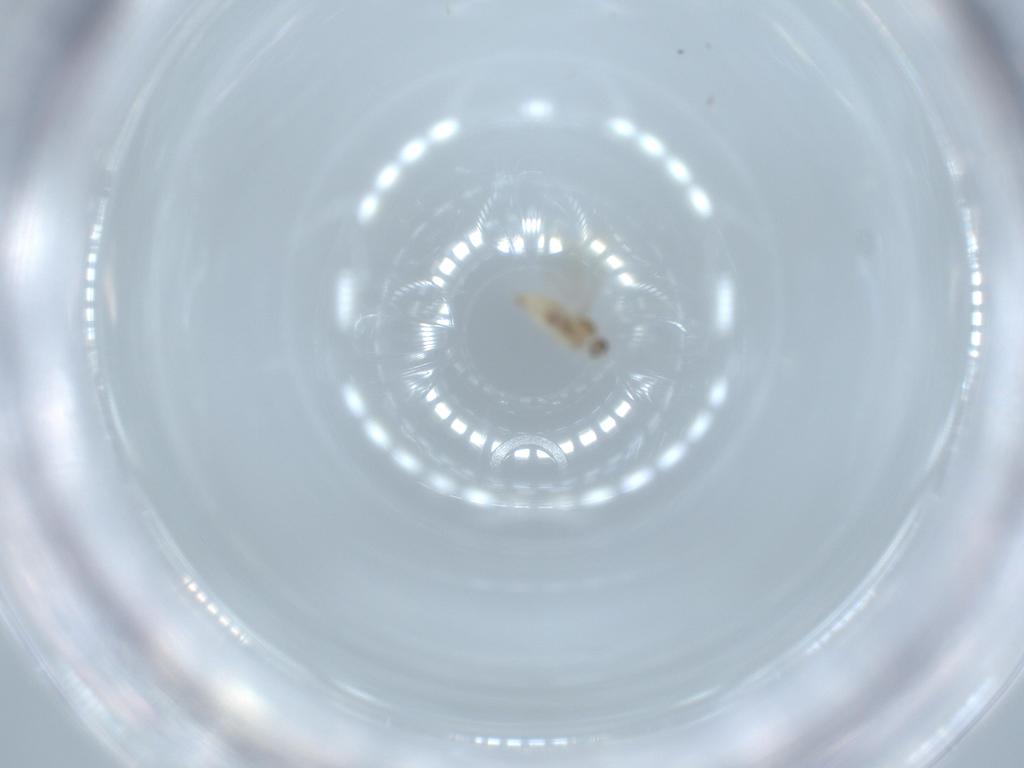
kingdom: Animalia
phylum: Arthropoda
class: Insecta
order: Diptera
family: Cecidomyiidae
